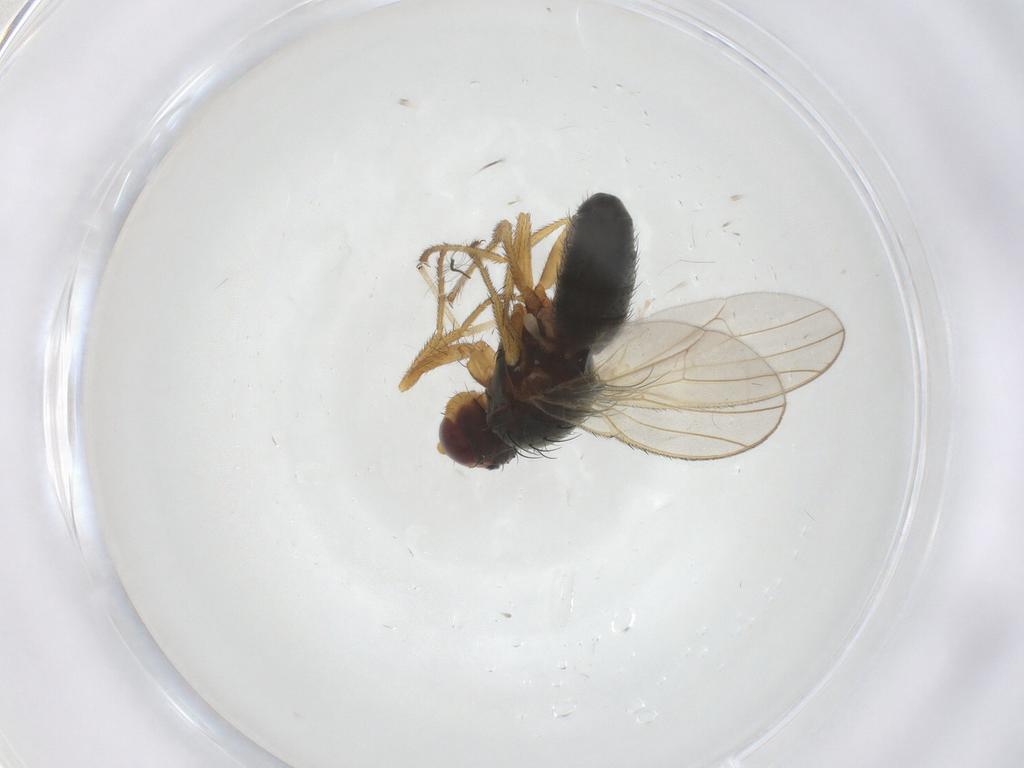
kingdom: Animalia
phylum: Arthropoda
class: Insecta
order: Diptera
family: Heleomyzidae
